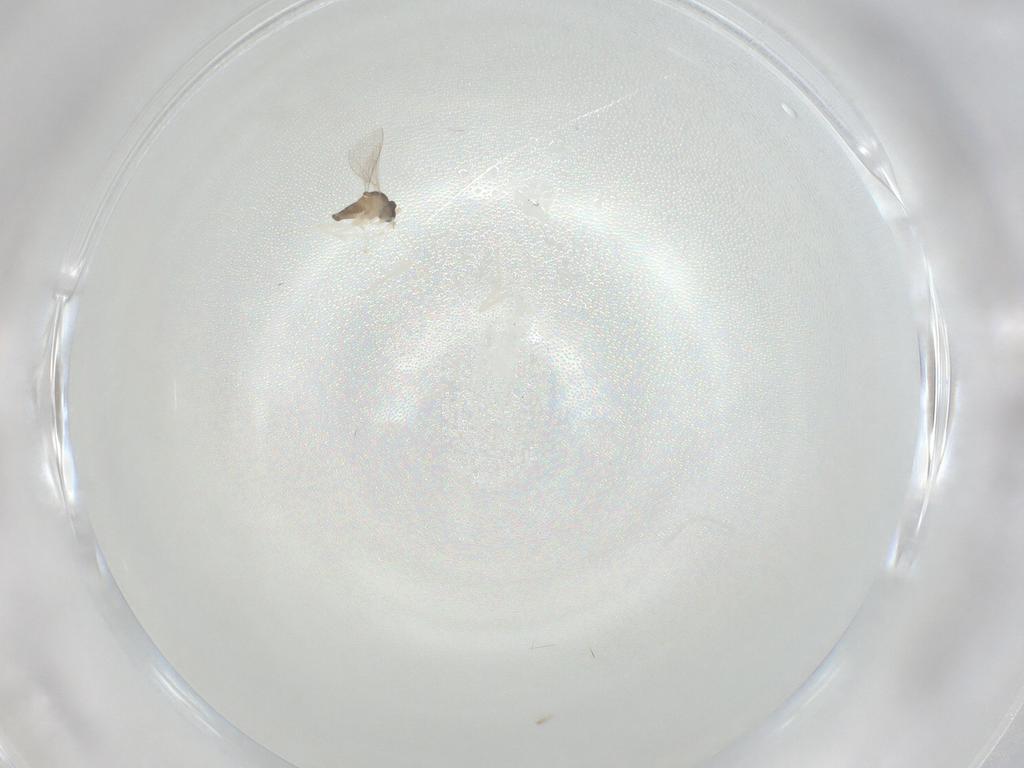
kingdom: Animalia
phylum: Arthropoda
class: Insecta
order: Diptera
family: Cecidomyiidae
